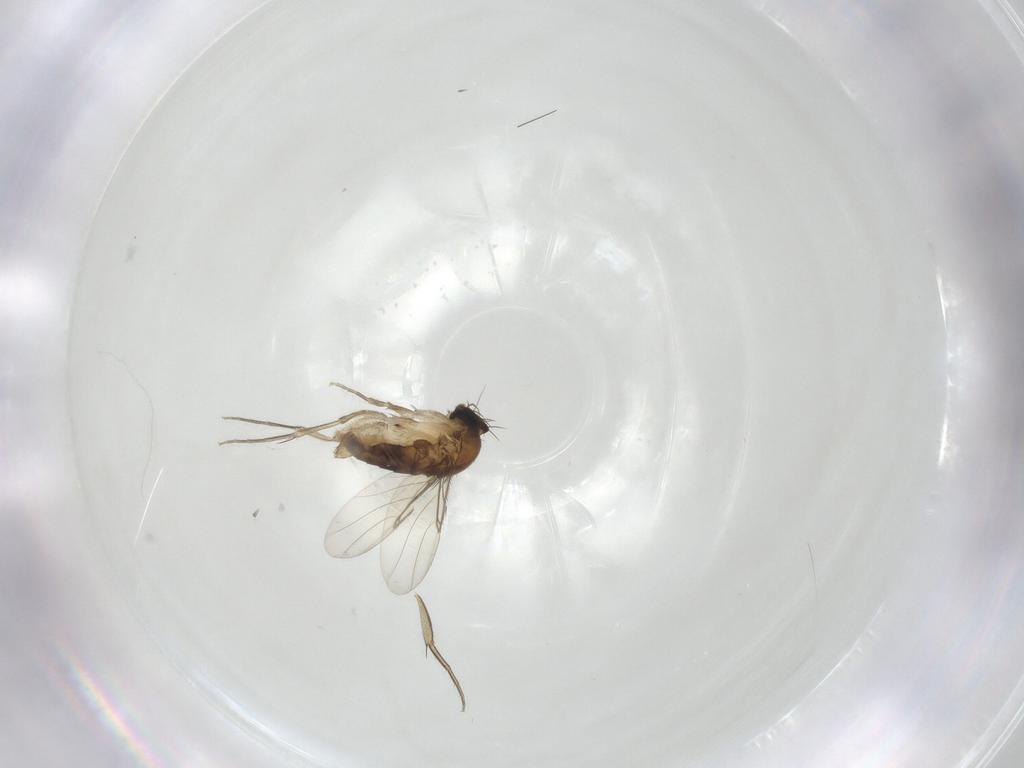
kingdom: Animalia
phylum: Arthropoda
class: Insecta
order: Diptera
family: Phoridae
